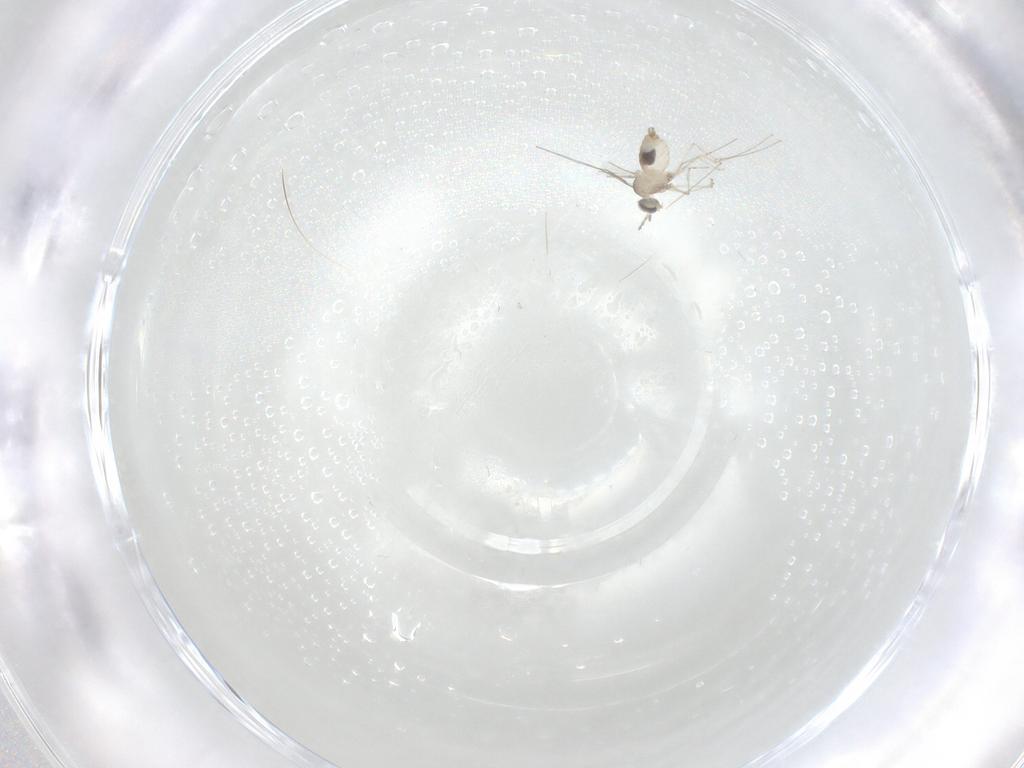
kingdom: Animalia
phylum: Arthropoda
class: Insecta
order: Diptera
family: Cecidomyiidae
